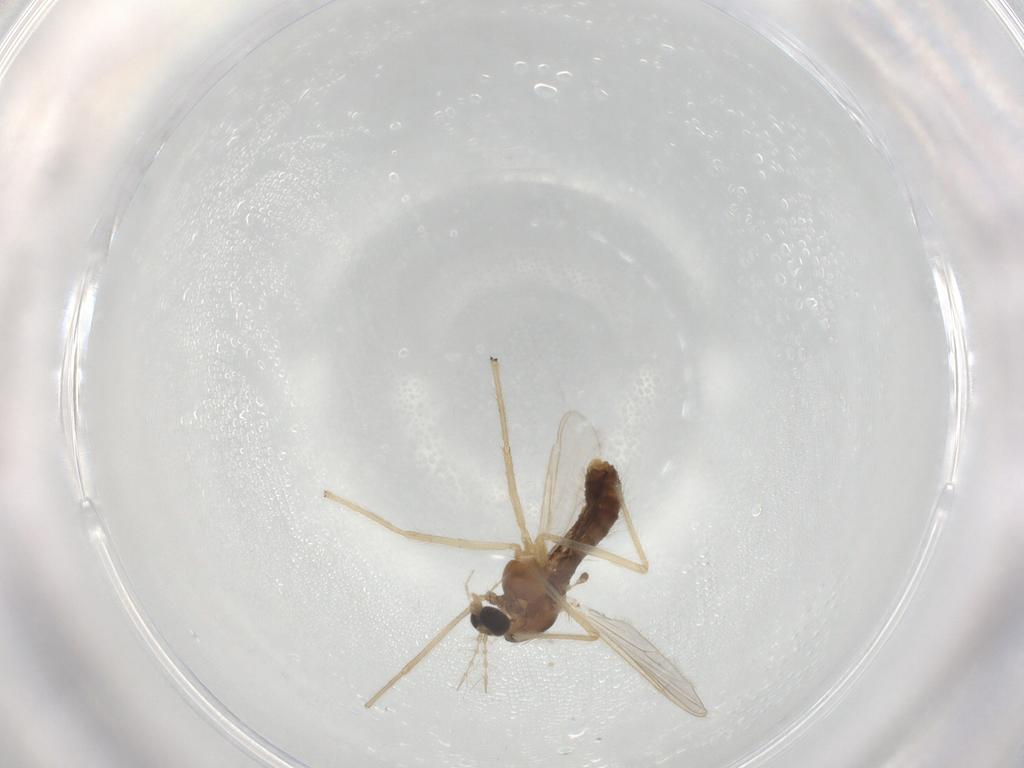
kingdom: Animalia
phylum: Arthropoda
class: Insecta
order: Diptera
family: Chironomidae
